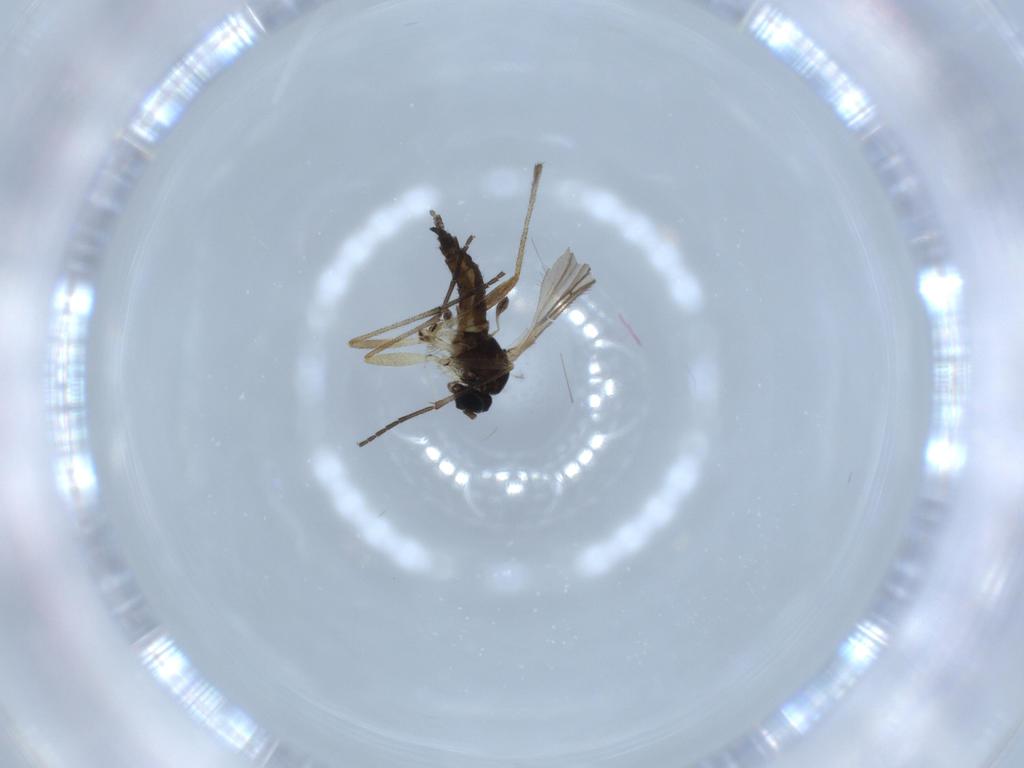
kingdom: Animalia
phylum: Arthropoda
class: Insecta
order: Diptera
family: Sciaridae
